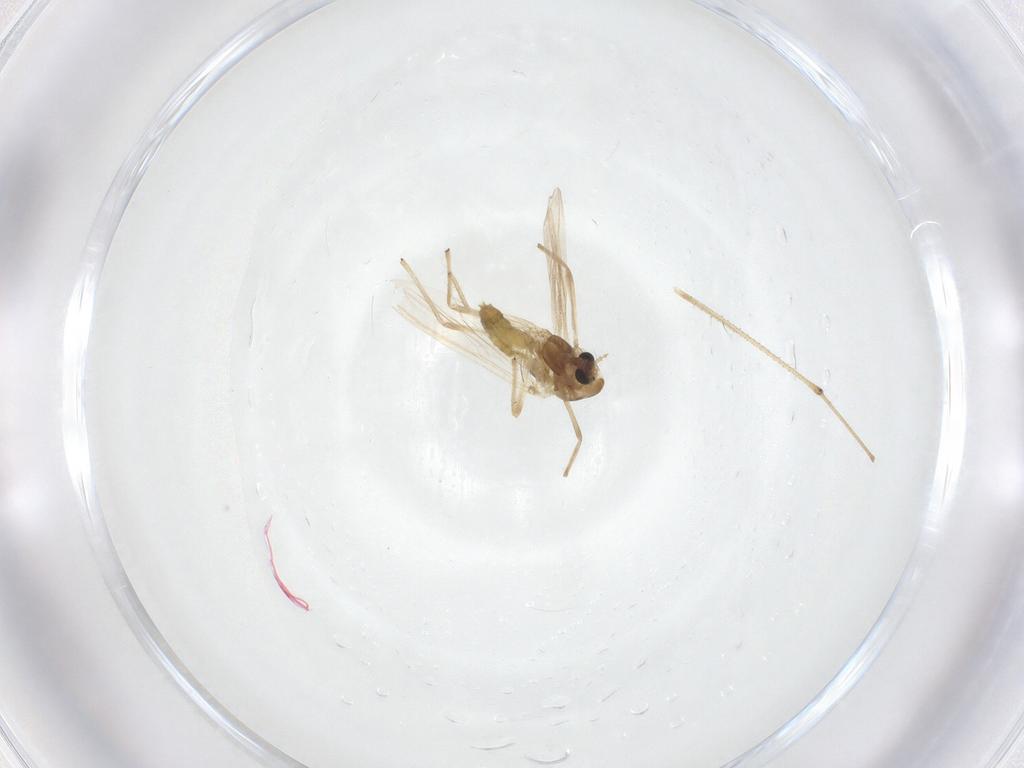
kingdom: Animalia
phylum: Arthropoda
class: Insecta
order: Diptera
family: Chironomidae
